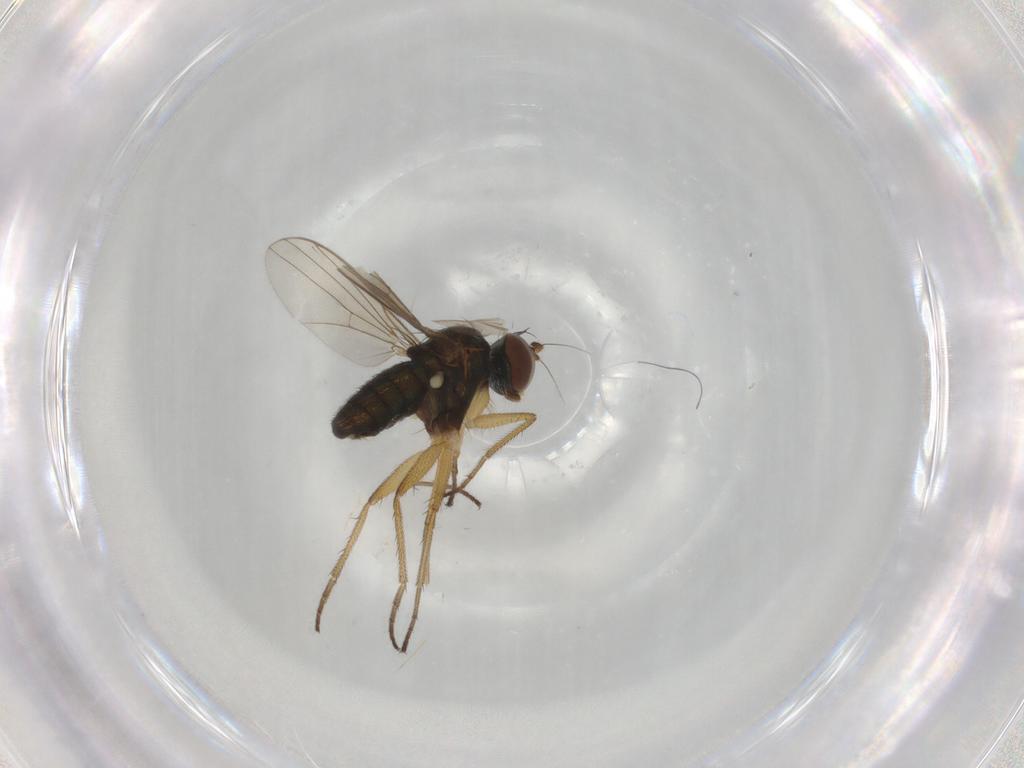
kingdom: Animalia
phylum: Arthropoda
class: Insecta
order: Diptera
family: Dolichopodidae
